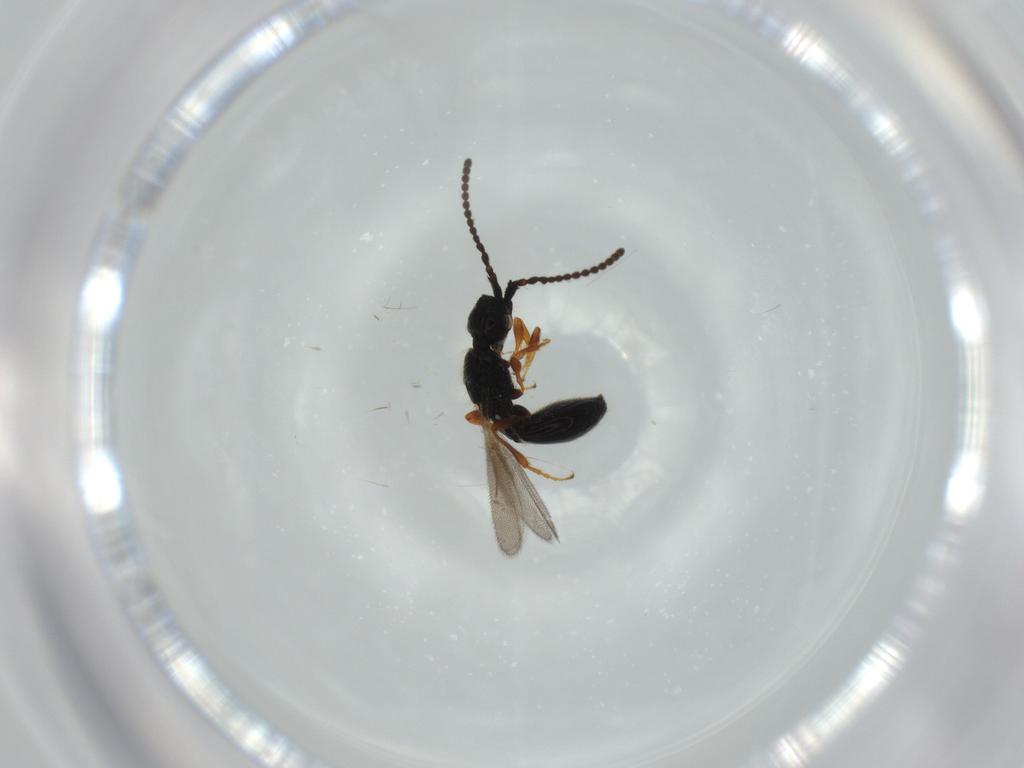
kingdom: Animalia
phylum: Arthropoda
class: Insecta
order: Hymenoptera
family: Diapriidae
